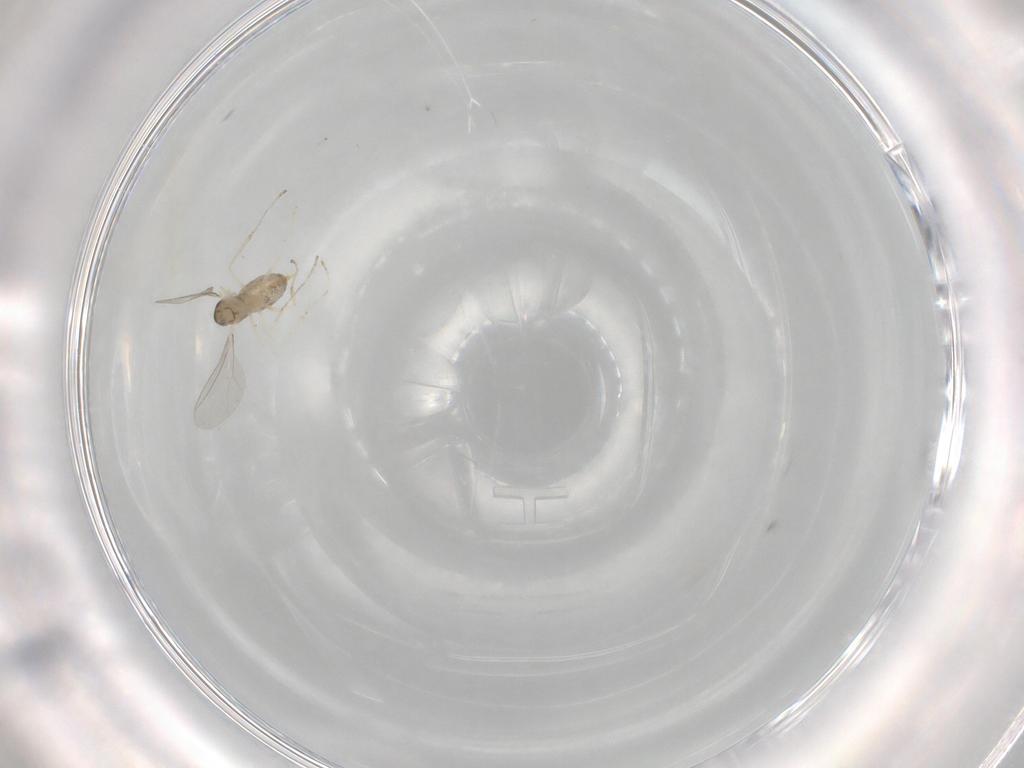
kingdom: Animalia
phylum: Arthropoda
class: Insecta
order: Diptera
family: Cecidomyiidae
